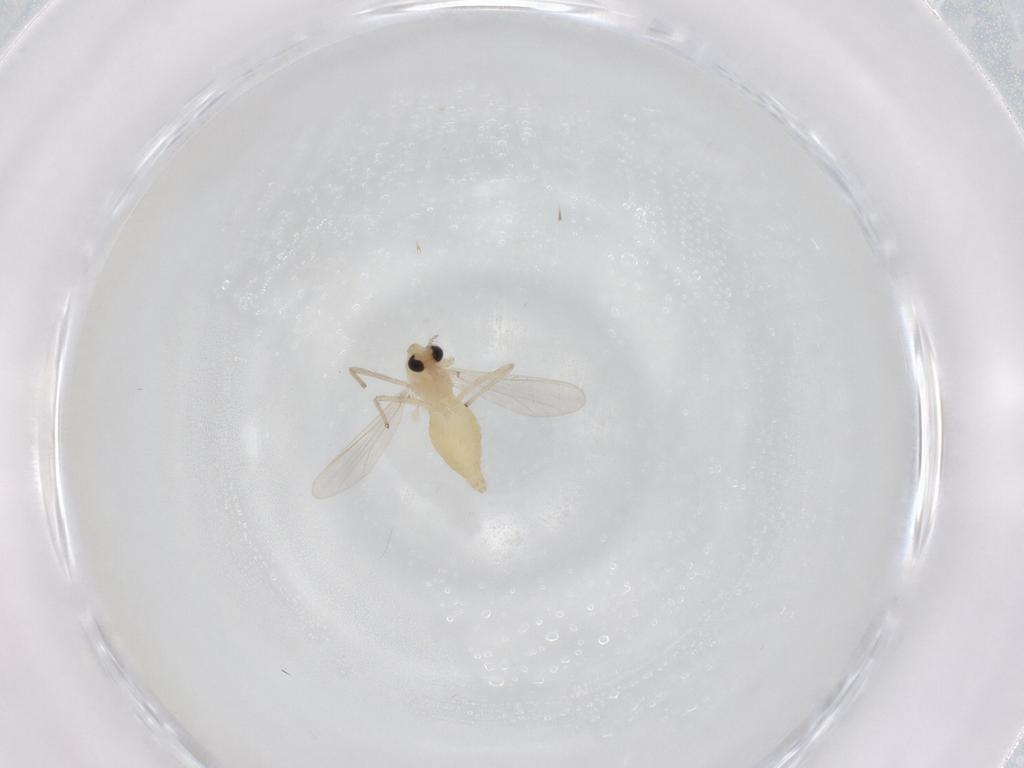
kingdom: Animalia
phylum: Arthropoda
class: Insecta
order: Diptera
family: Chironomidae
